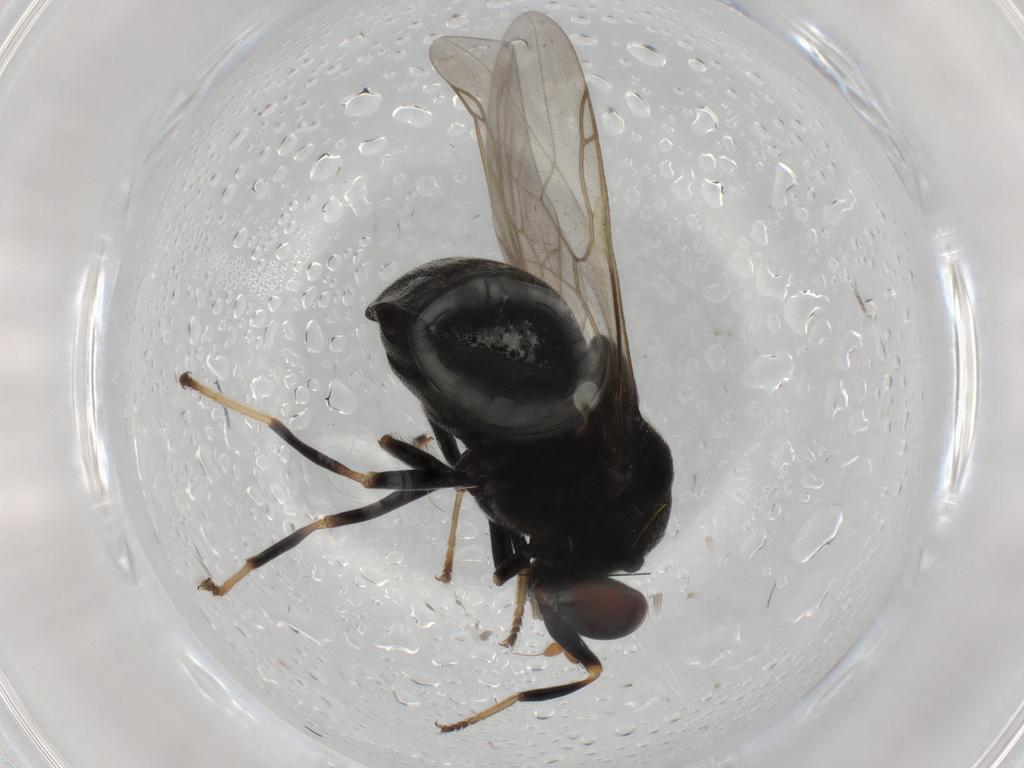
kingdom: Animalia
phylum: Arthropoda
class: Insecta
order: Diptera
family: Stratiomyidae
